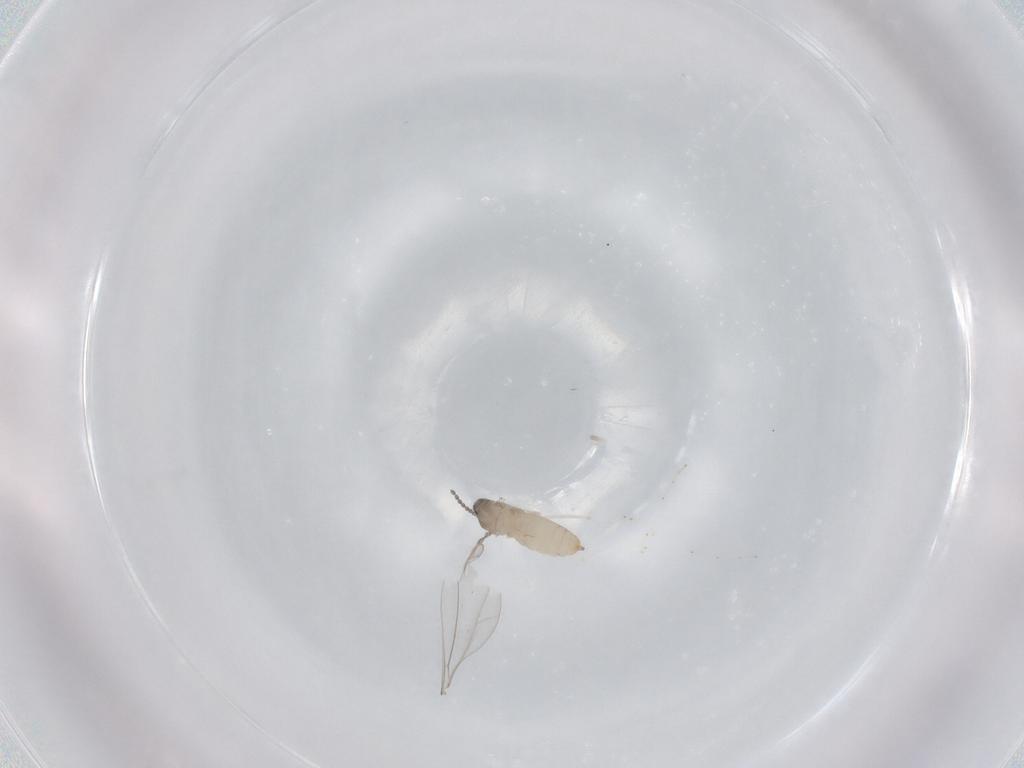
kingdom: Animalia
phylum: Arthropoda
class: Insecta
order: Diptera
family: Cecidomyiidae
